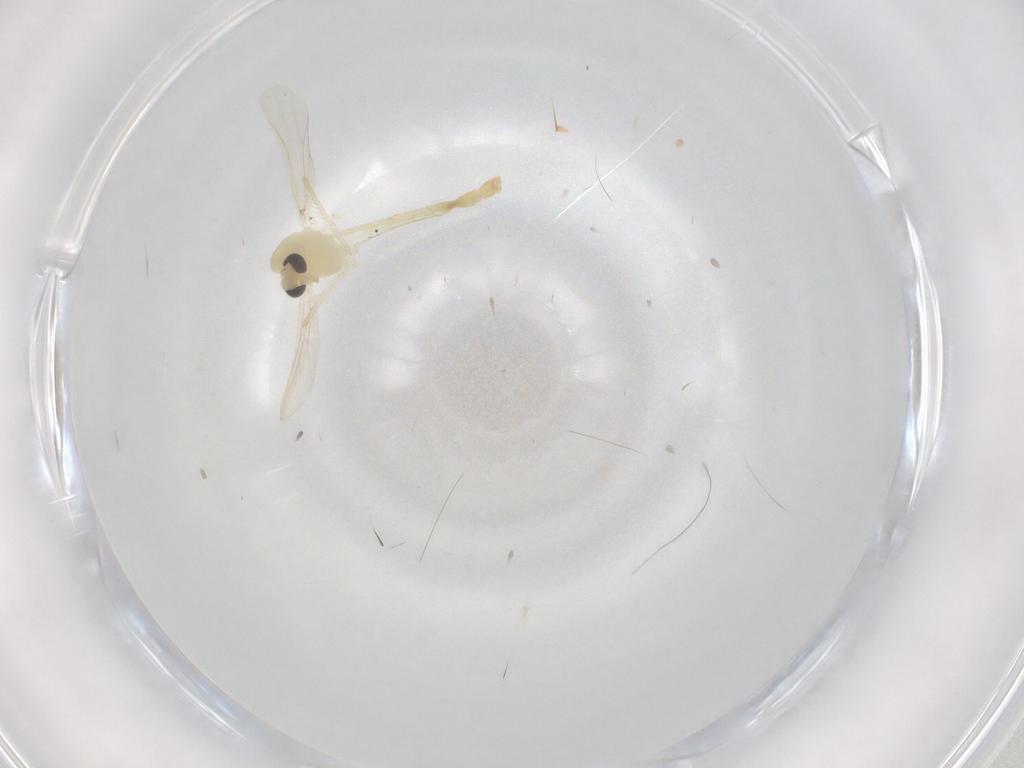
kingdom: Animalia
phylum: Arthropoda
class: Insecta
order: Diptera
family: Chironomidae
